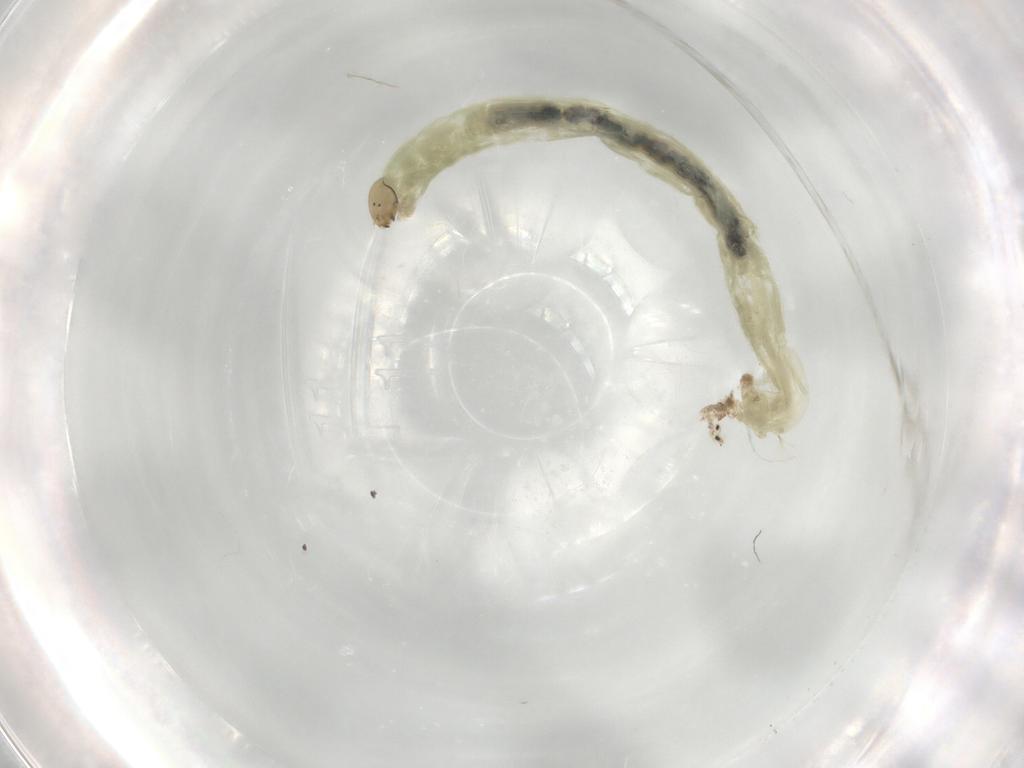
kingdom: Animalia
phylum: Arthropoda
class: Insecta
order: Diptera
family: Chironomidae
